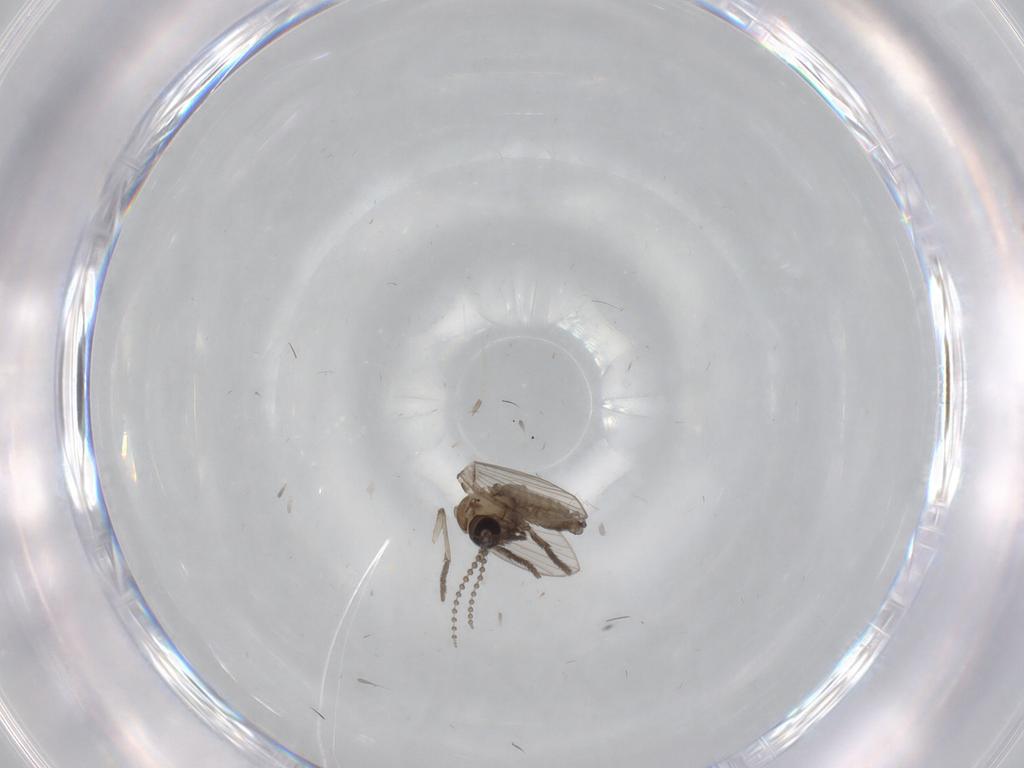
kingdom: Animalia
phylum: Arthropoda
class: Insecta
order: Diptera
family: Psychodidae
